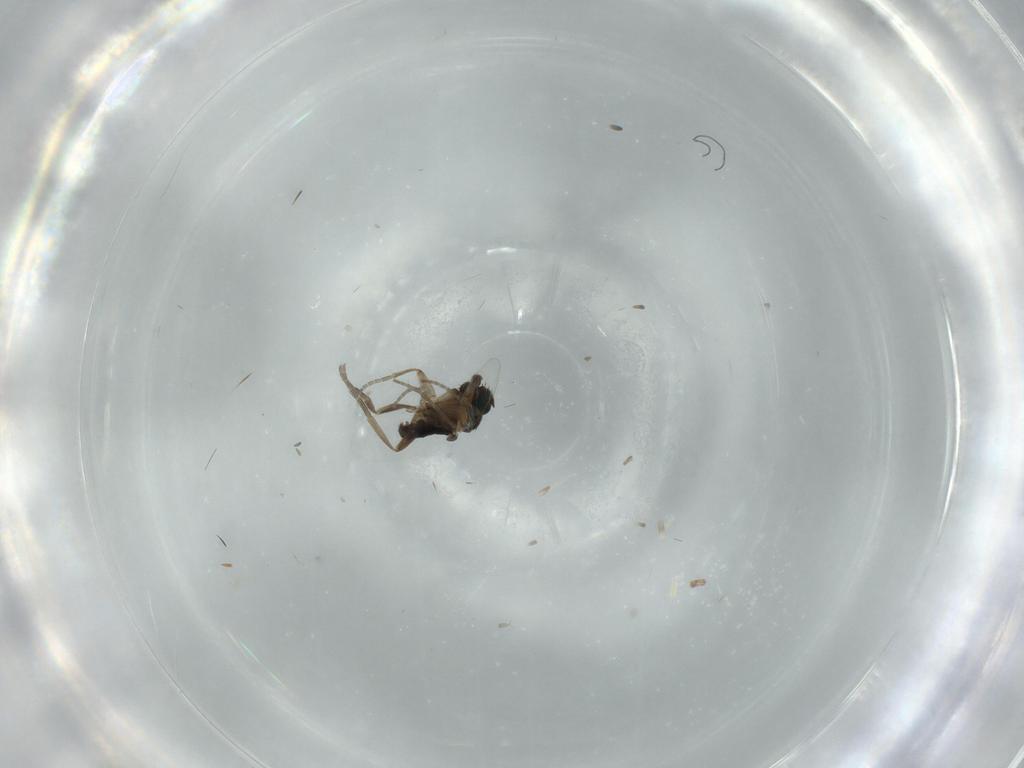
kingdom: Animalia
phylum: Arthropoda
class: Insecta
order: Diptera
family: Phoridae
